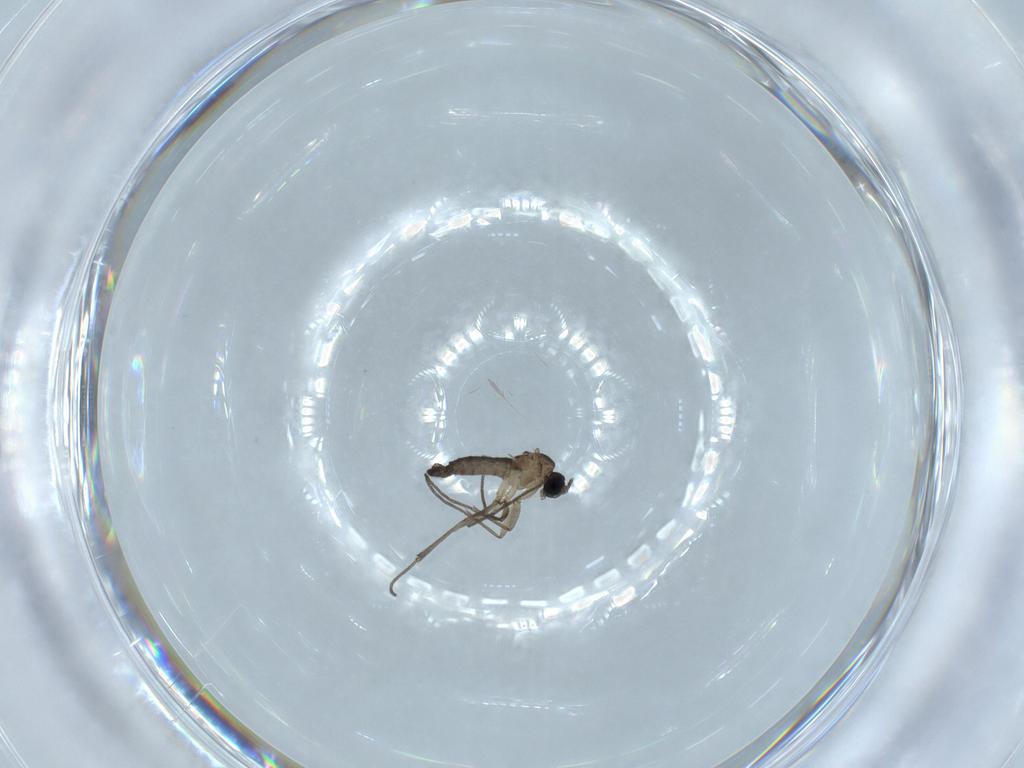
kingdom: Animalia
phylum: Arthropoda
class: Insecta
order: Diptera
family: Sciaridae
